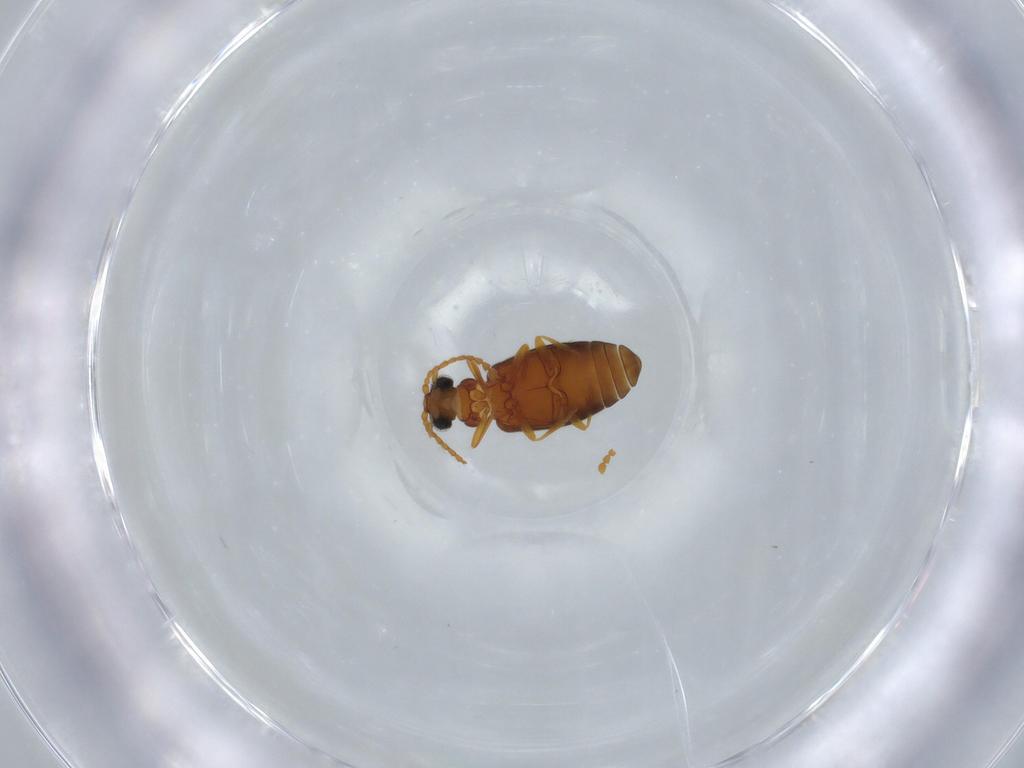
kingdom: Animalia
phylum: Arthropoda
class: Insecta
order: Coleoptera
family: Aderidae
